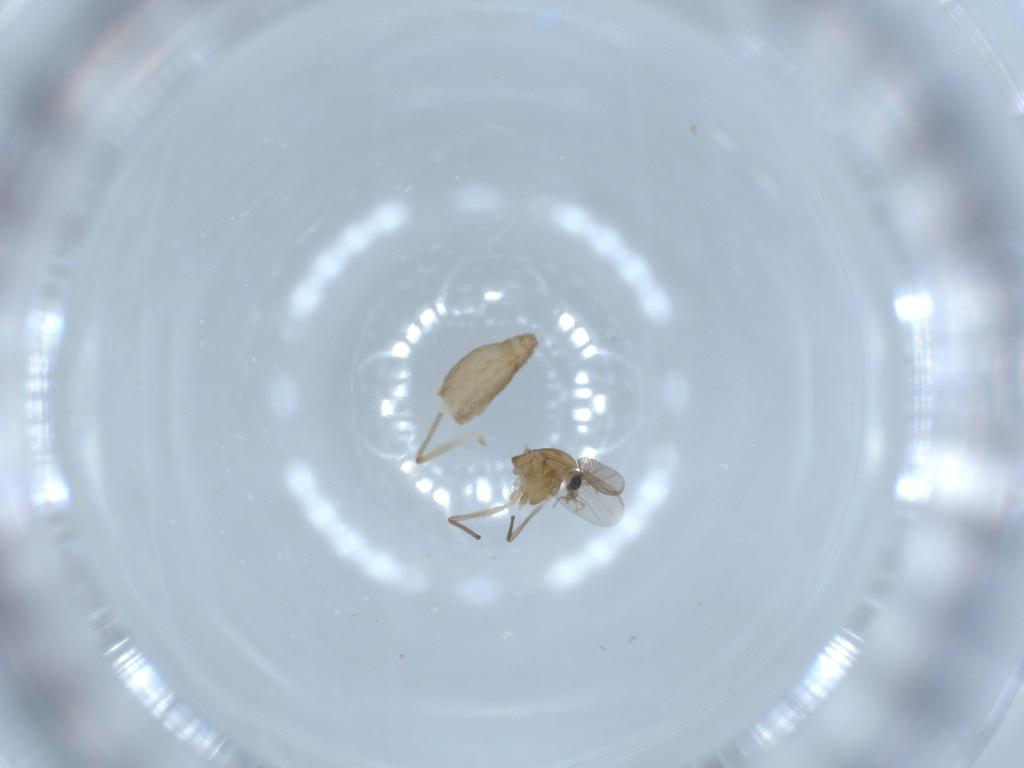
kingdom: Animalia
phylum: Arthropoda
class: Insecta
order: Diptera
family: Chironomidae
